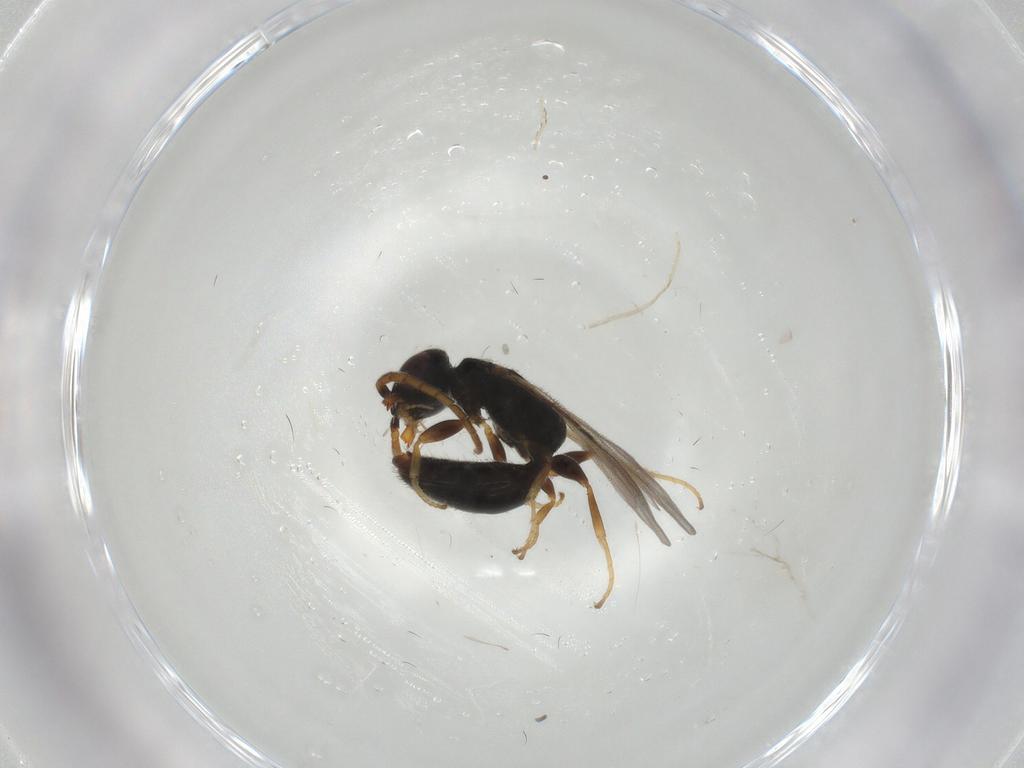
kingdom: Animalia
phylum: Arthropoda
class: Insecta
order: Hymenoptera
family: Bethylidae
